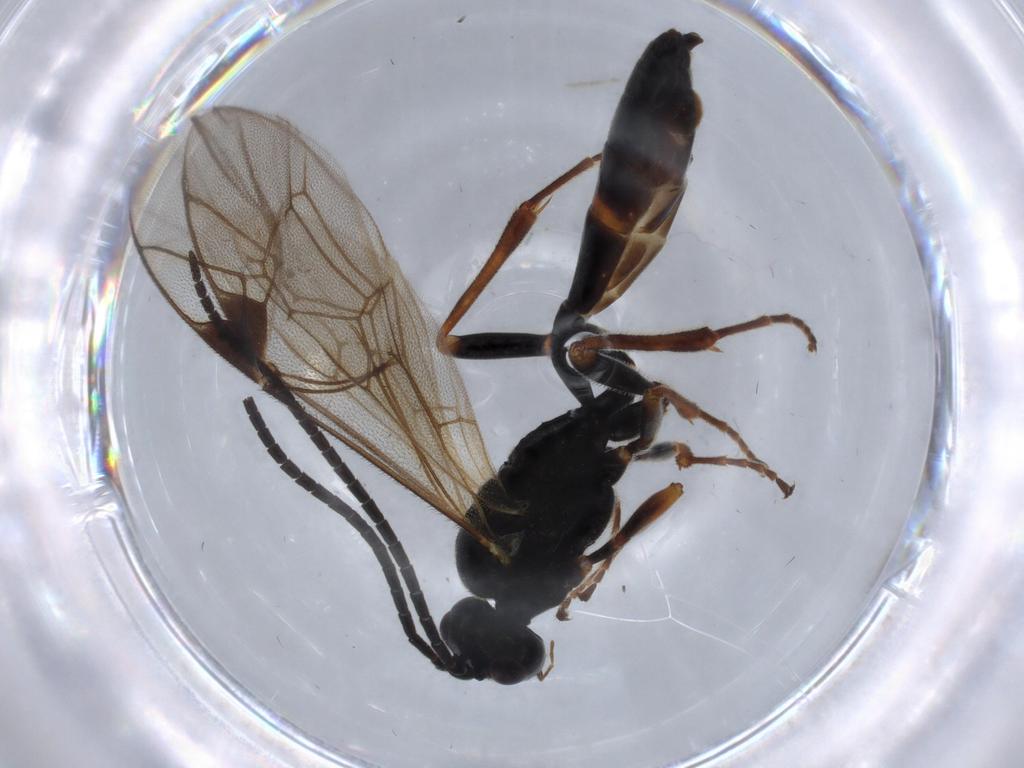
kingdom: Animalia
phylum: Arthropoda
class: Insecta
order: Hymenoptera
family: Ichneumonidae
